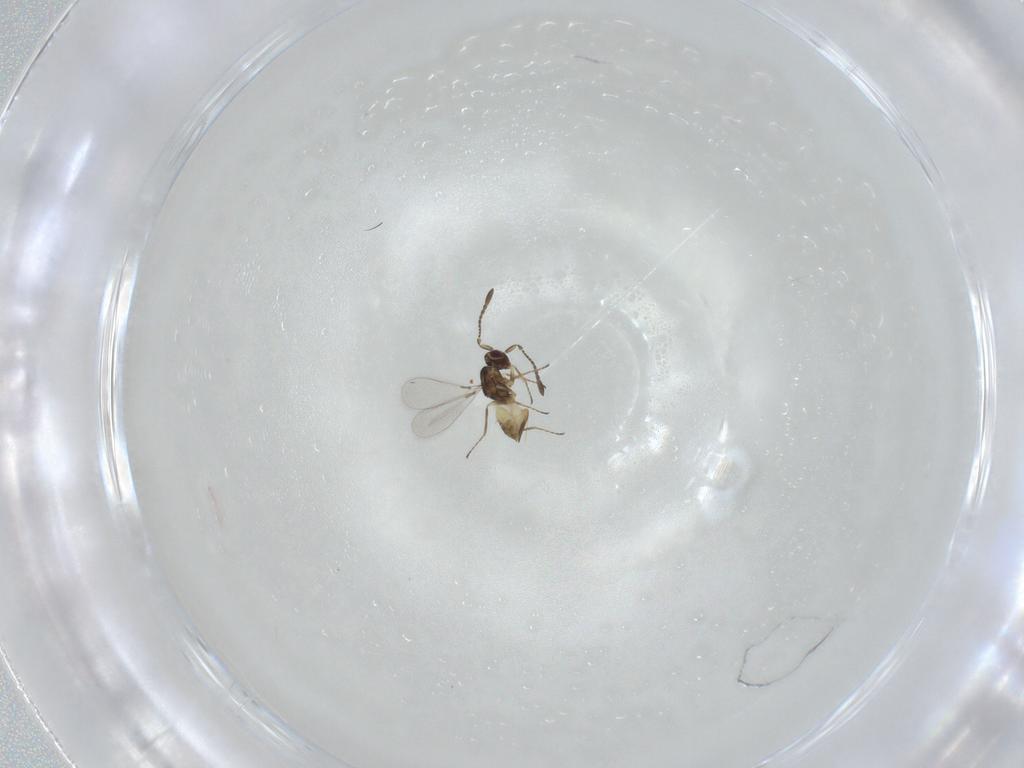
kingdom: Animalia
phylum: Arthropoda
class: Insecta
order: Hymenoptera
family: Mymaridae
